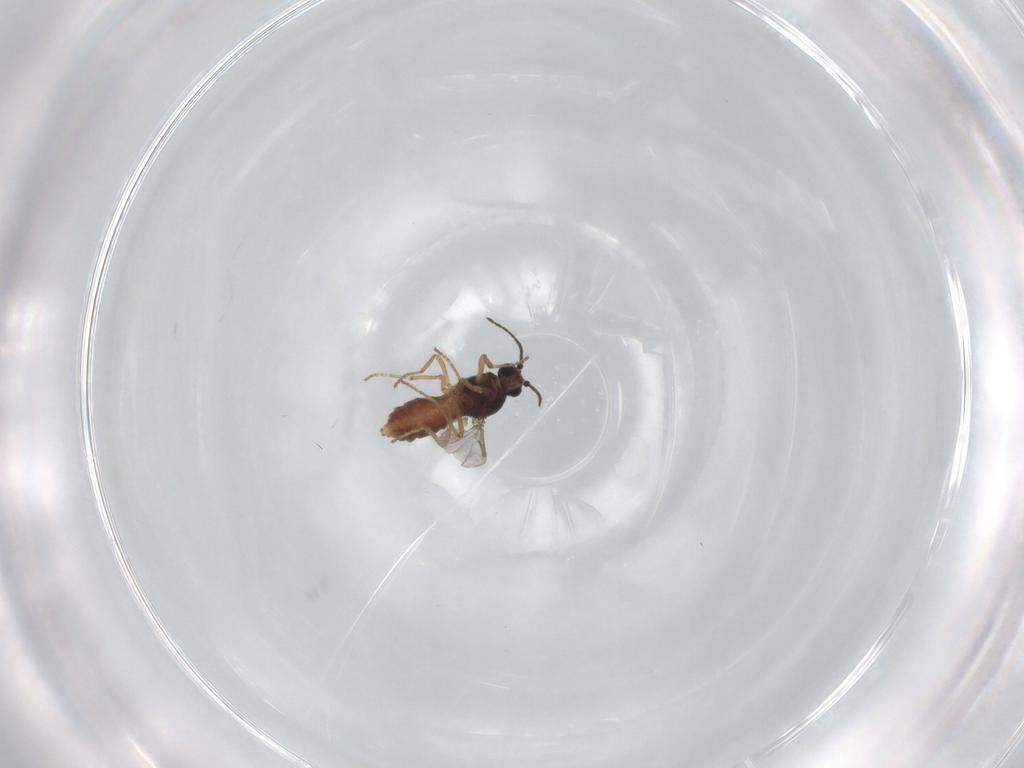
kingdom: Animalia
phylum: Arthropoda
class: Insecta
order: Diptera
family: Ceratopogonidae
